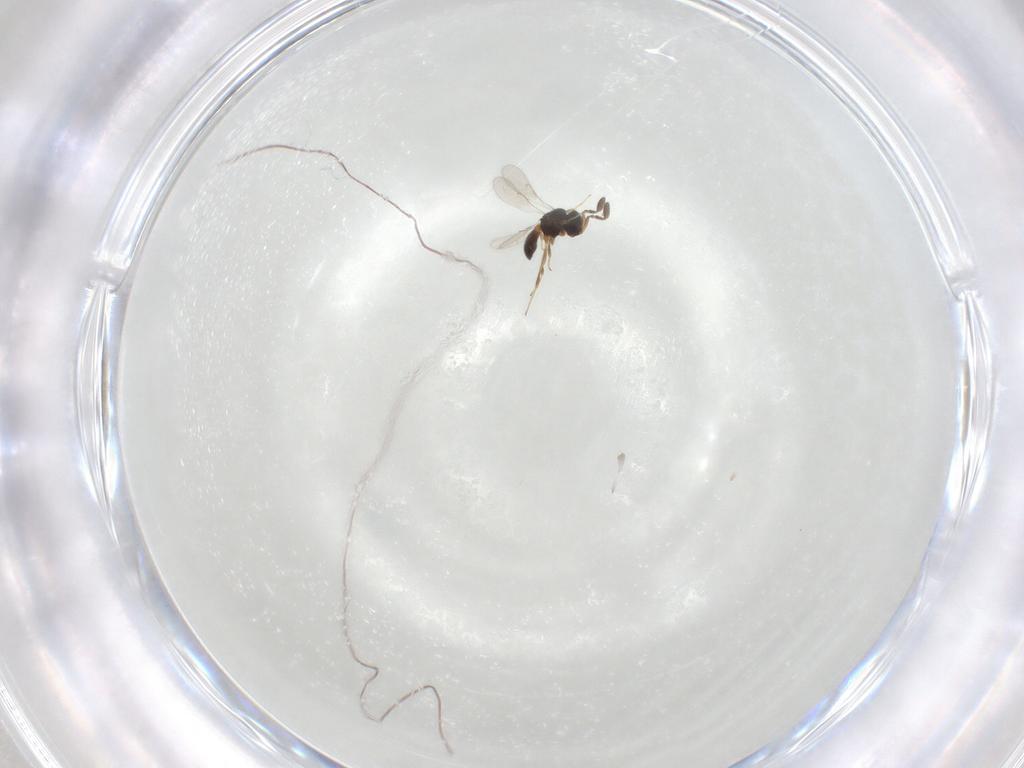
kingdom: Animalia
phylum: Arthropoda
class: Insecta
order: Hymenoptera
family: Scelionidae
